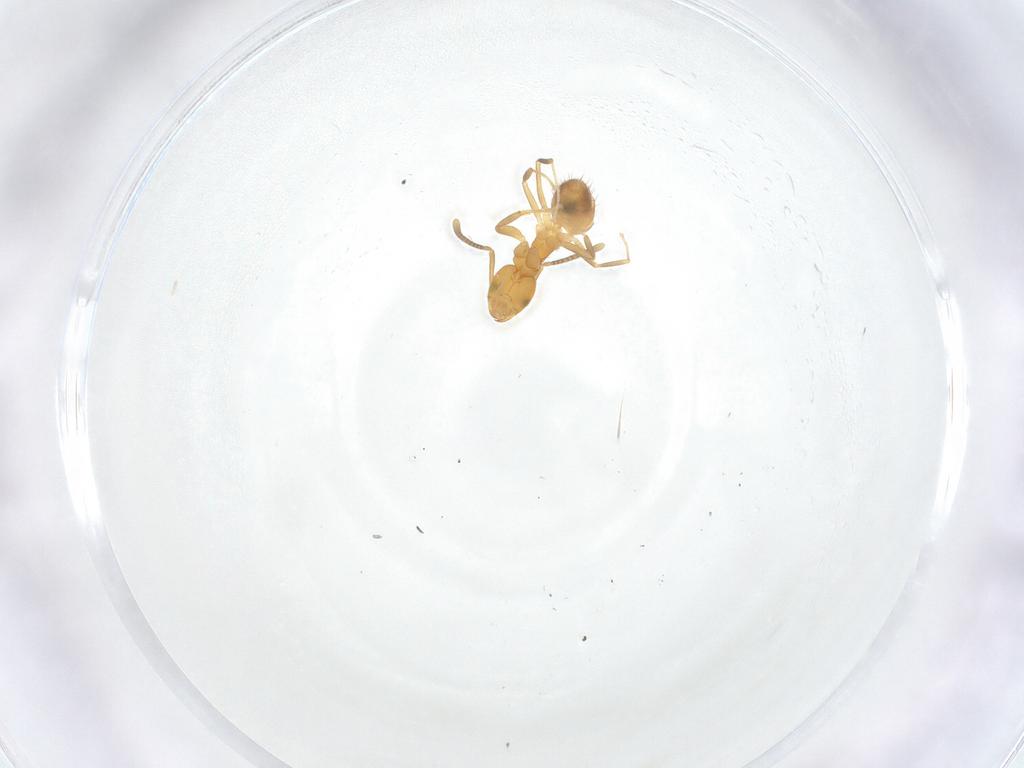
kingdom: Animalia
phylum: Arthropoda
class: Insecta
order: Hymenoptera
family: Formicidae
